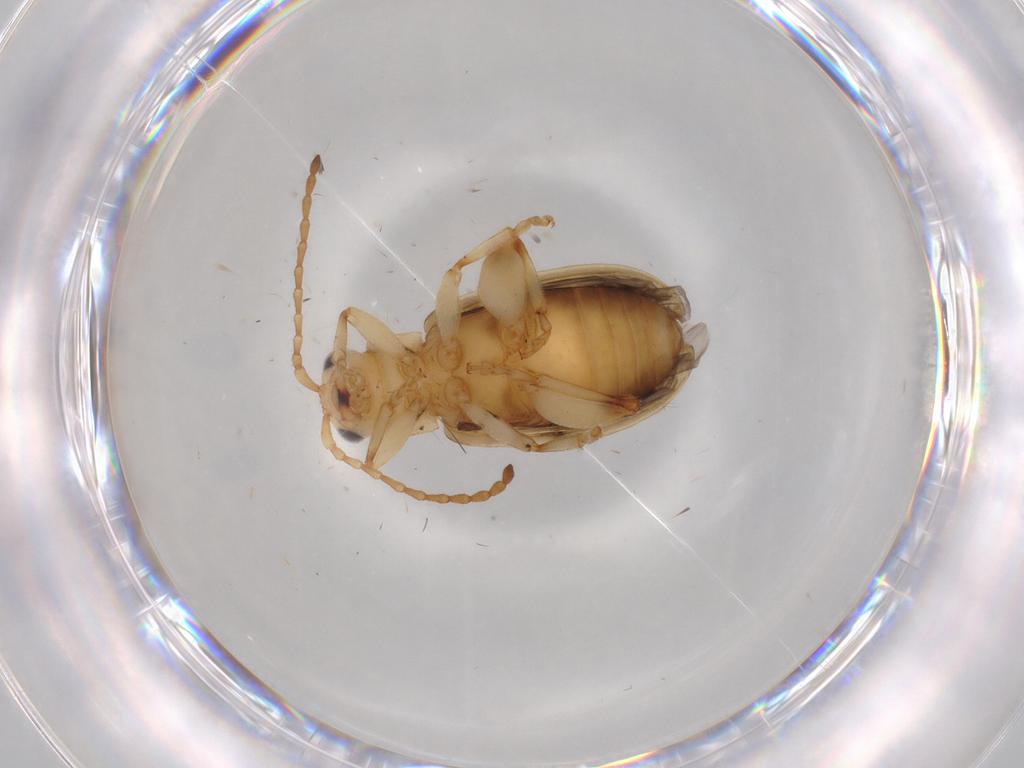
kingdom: Animalia
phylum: Arthropoda
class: Insecta
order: Coleoptera
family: Chrysomelidae
